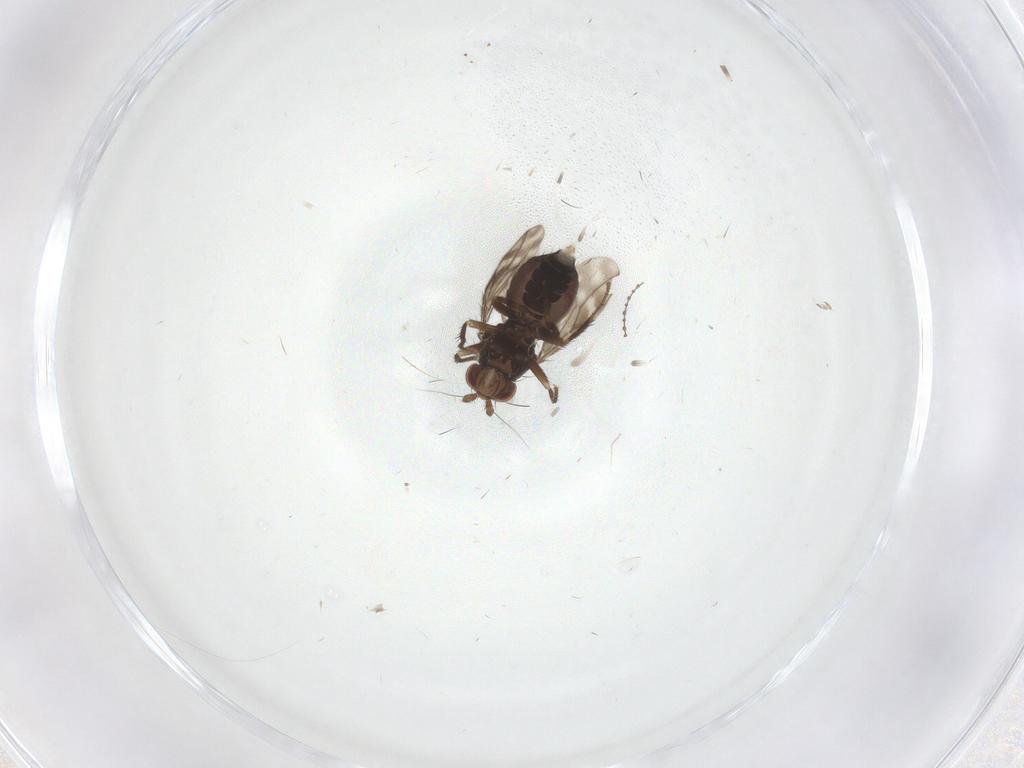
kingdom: Animalia
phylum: Arthropoda
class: Insecta
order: Diptera
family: Sphaeroceridae
